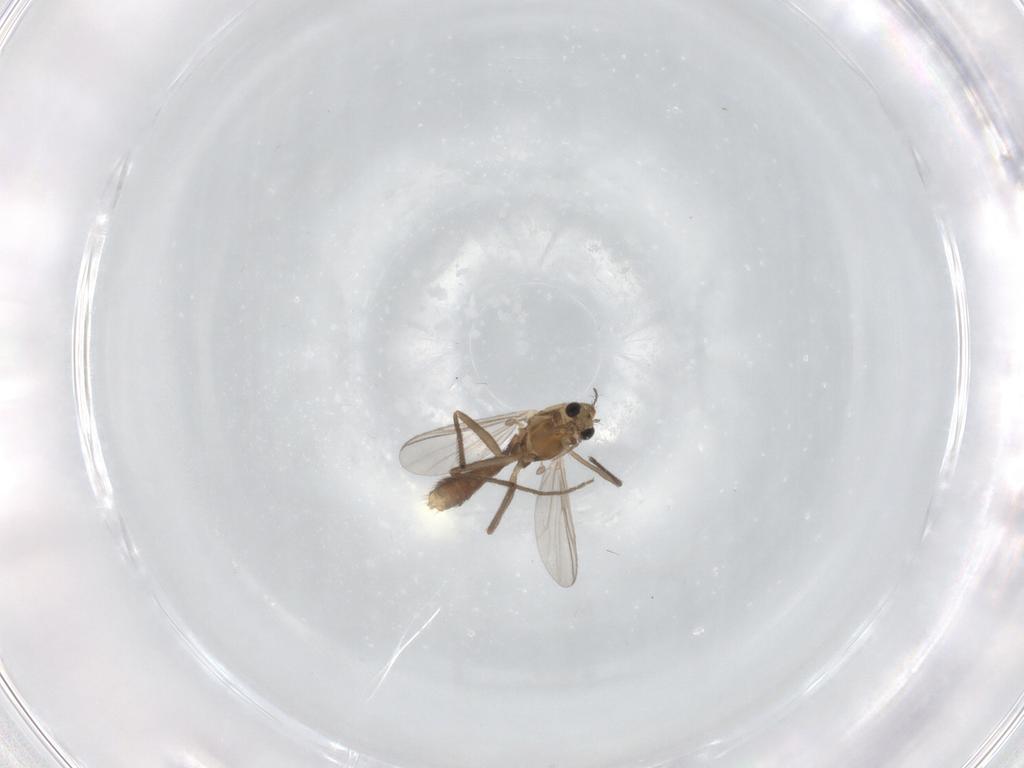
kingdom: Animalia
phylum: Arthropoda
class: Insecta
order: Diptera
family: Chironomidae
